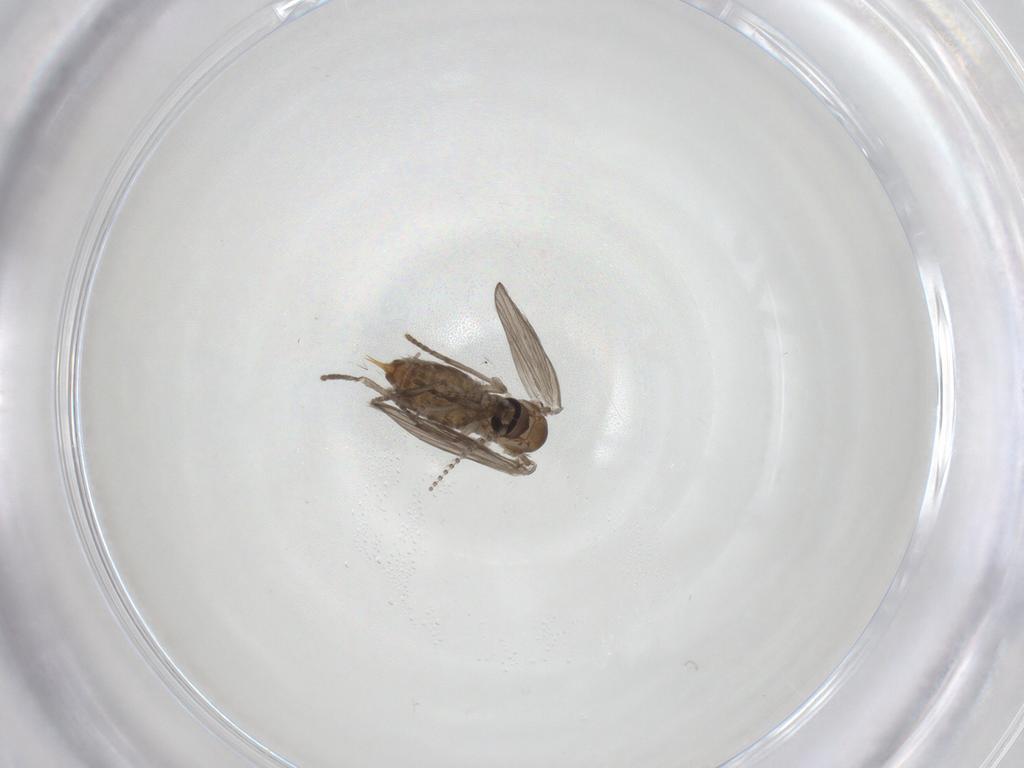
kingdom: Animalia
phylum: Arthropoda
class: Insecta
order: Diptera
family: Psychodidae
